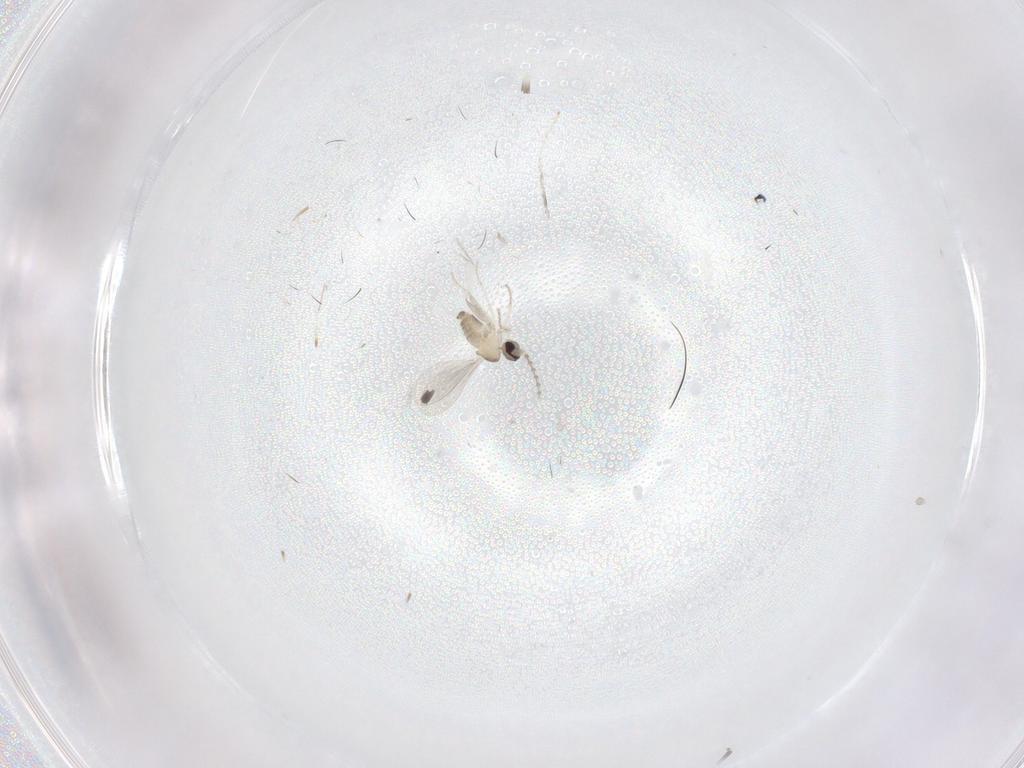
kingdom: Animalia
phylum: Arthropoda
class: Insecta
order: Diptera
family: Cecidomyiidae
